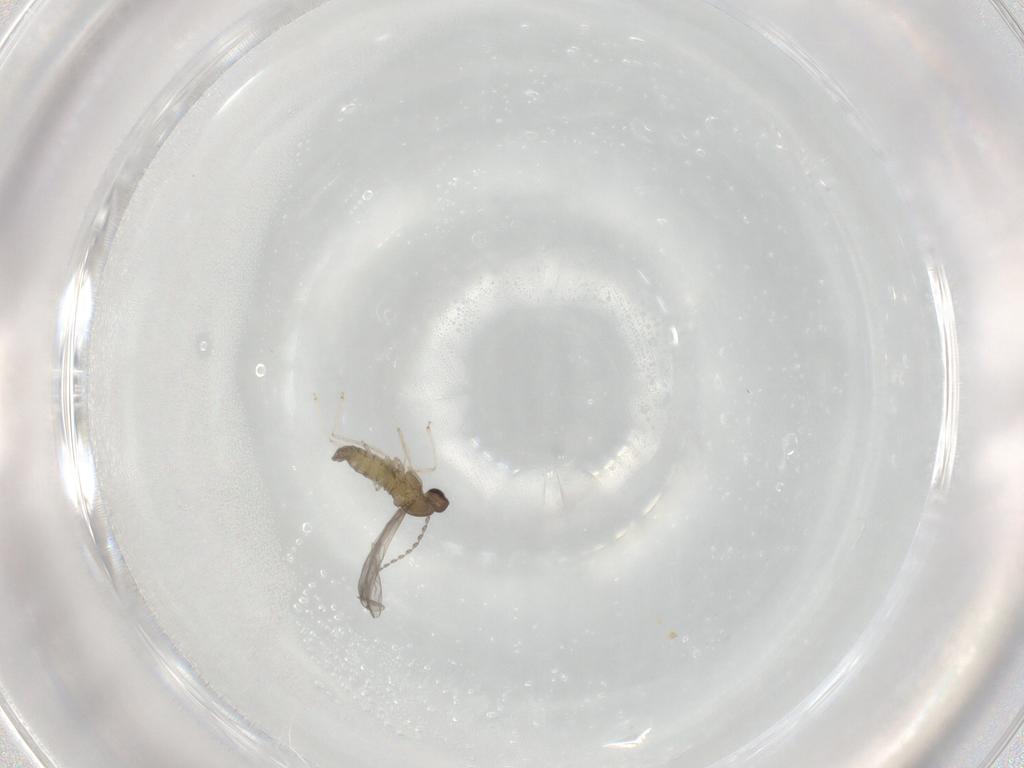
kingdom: Animalia
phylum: Arthropoda
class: Insecta
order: Diptera
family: Cecidomyiidae
